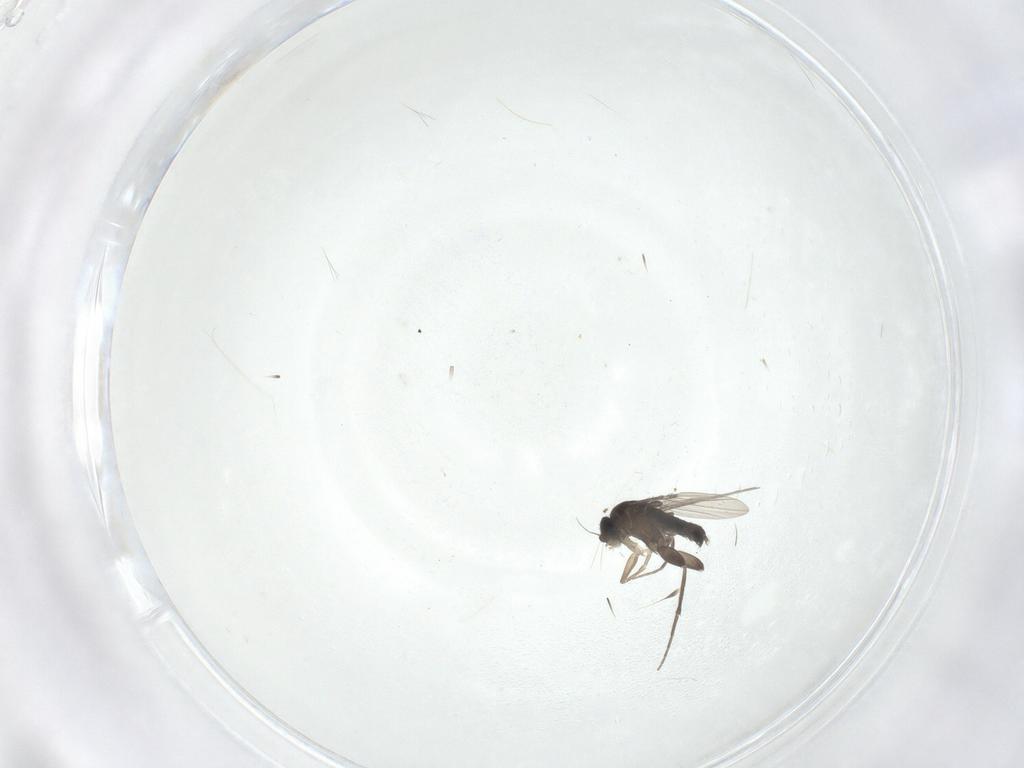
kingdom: Animalia
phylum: Arthropoda
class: Insecta
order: Diptera
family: Phoridae
